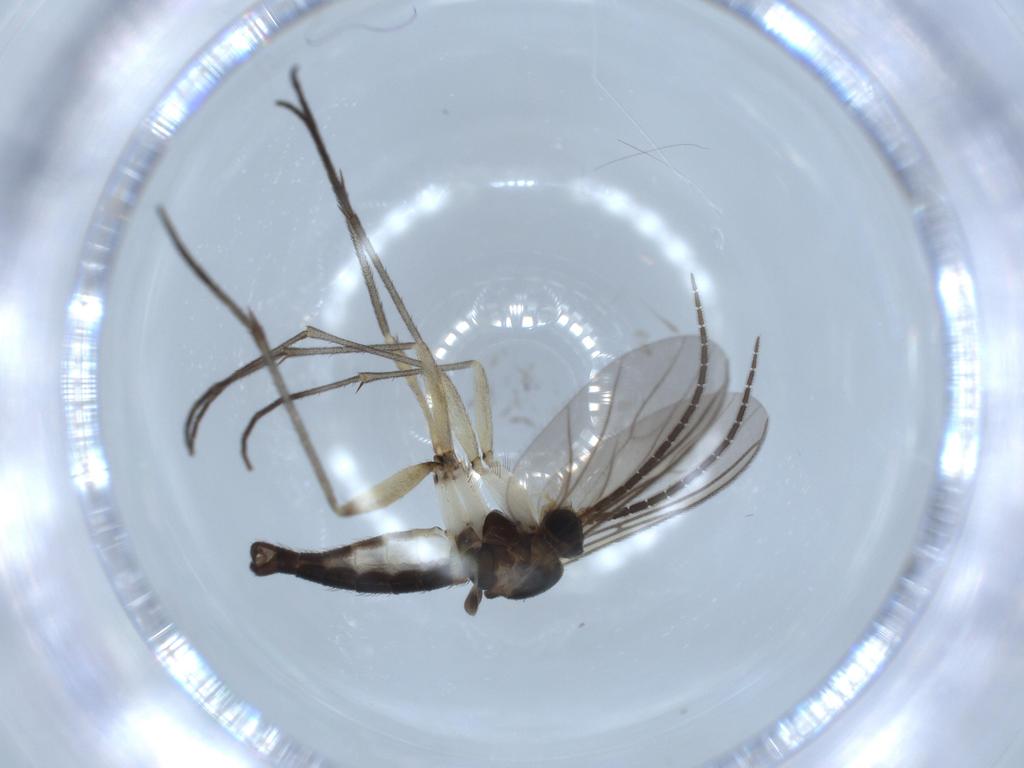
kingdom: Animalia
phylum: Arthropoda
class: Insecta
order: Diptera
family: Sciaridae
